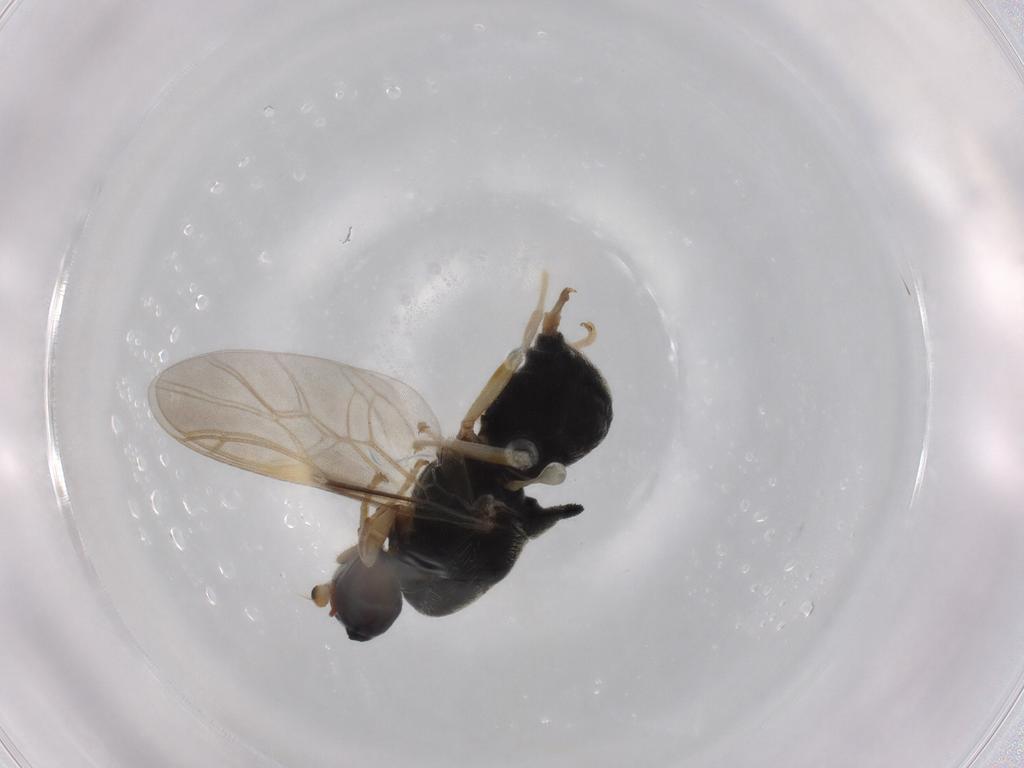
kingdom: Animalia
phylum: Arthropoda
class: Insecta
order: Diptera
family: Stratiomyidae
